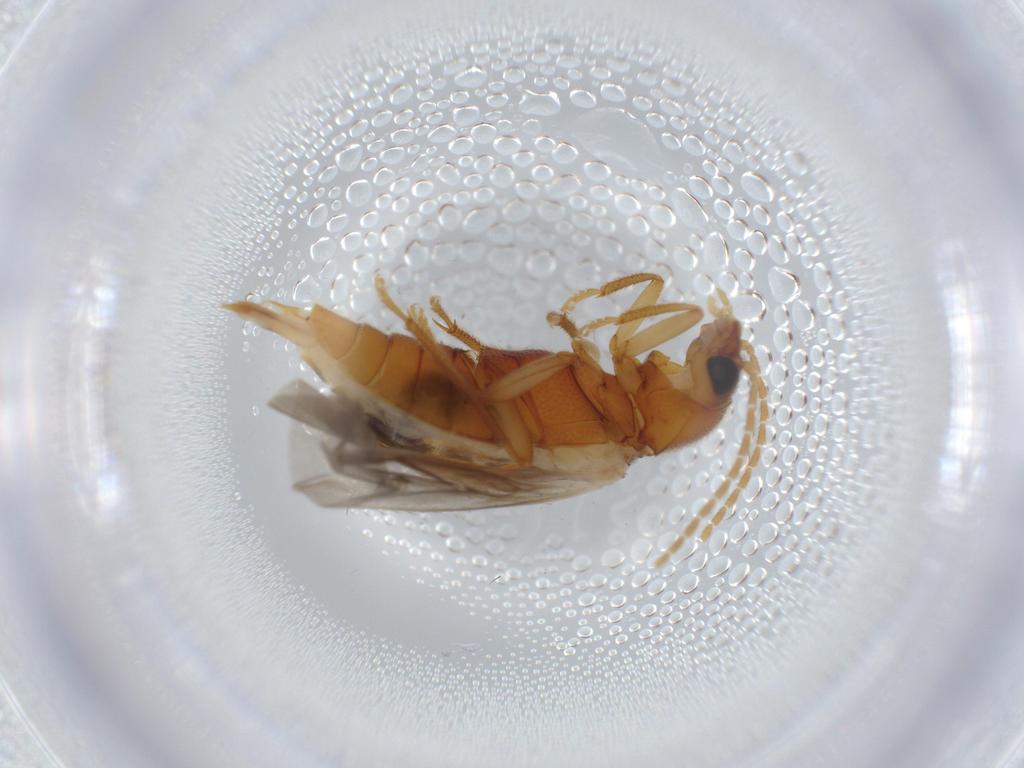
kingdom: Animalia
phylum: Arthropoda
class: Insecta
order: Coleoptera
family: Ptilodactylidae
